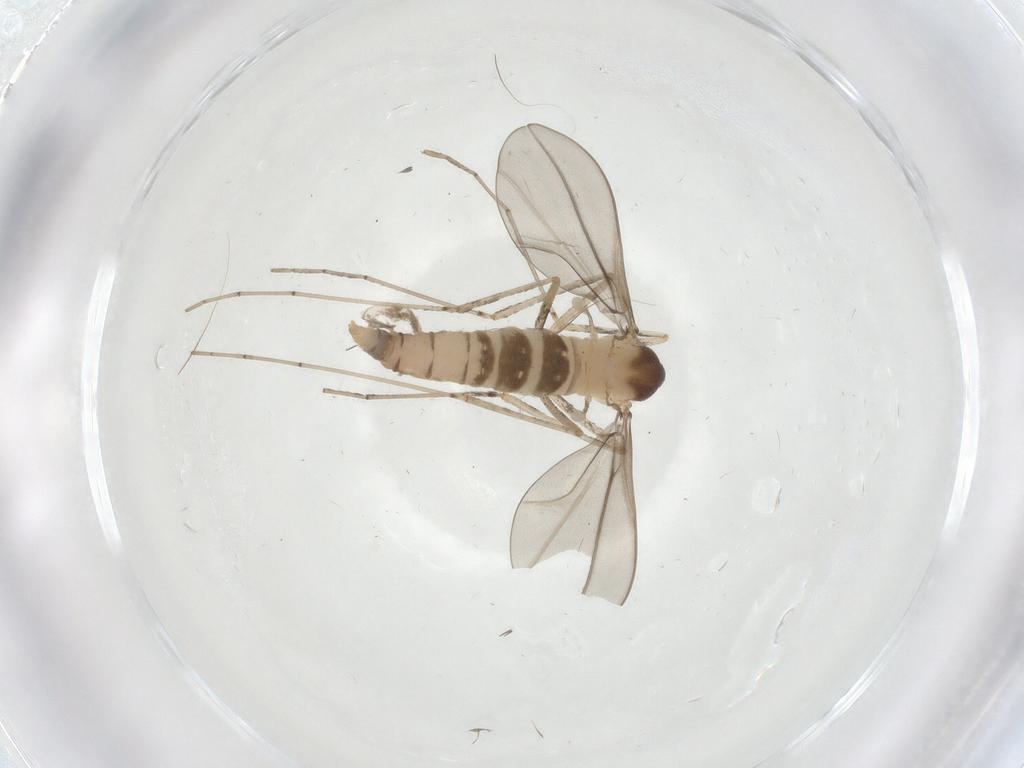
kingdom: Animalia
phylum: Arthropoda
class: Insecta
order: Diptera
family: Cecidomyiidae
